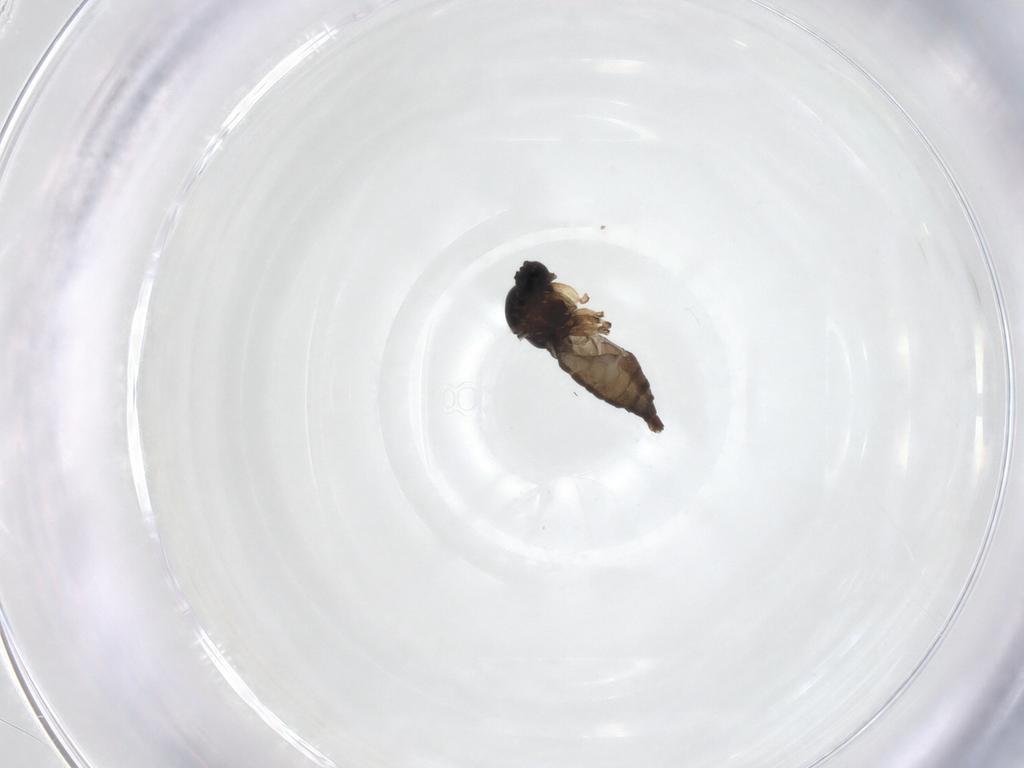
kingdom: Animalia
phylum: Arthropoda
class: Insecta
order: Diptera
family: Sciaridae
